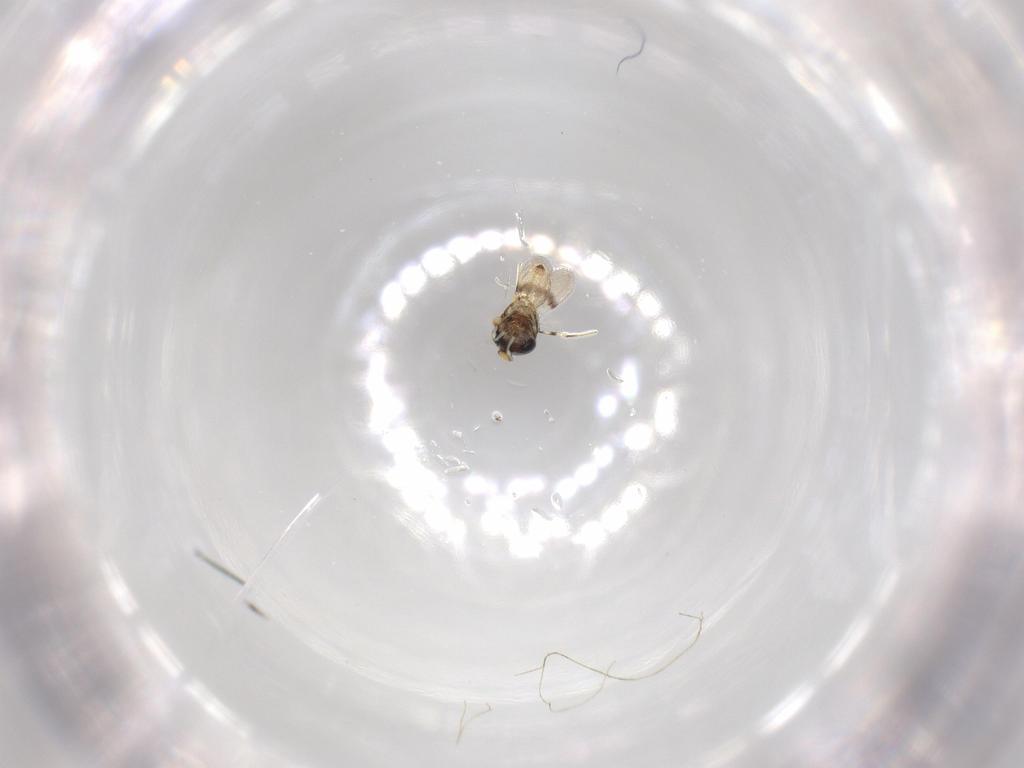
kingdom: Animalia
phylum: Arthropoda
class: Insecta
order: Hymenoptera
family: Scelionidae
